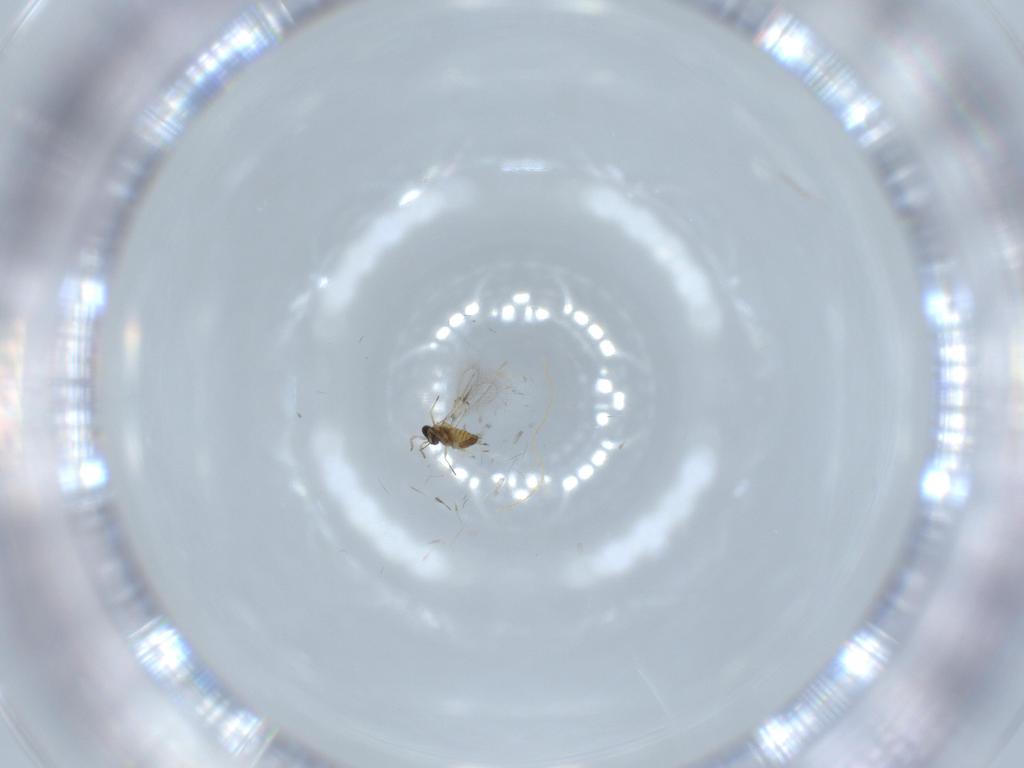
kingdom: Animalia
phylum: Arthropoda
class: Insecta
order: Hymenoptera
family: Trichogrammatidae
